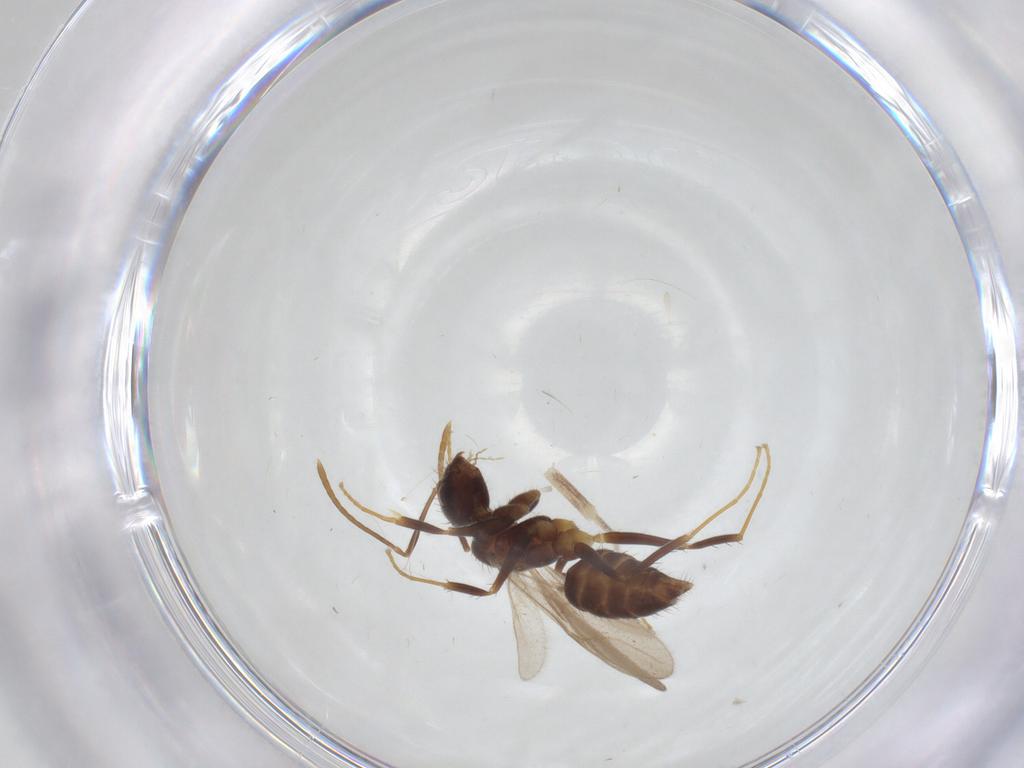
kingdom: Animalia
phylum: Arthropoda
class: Insecta
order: Hymenoptera
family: Formicidae
